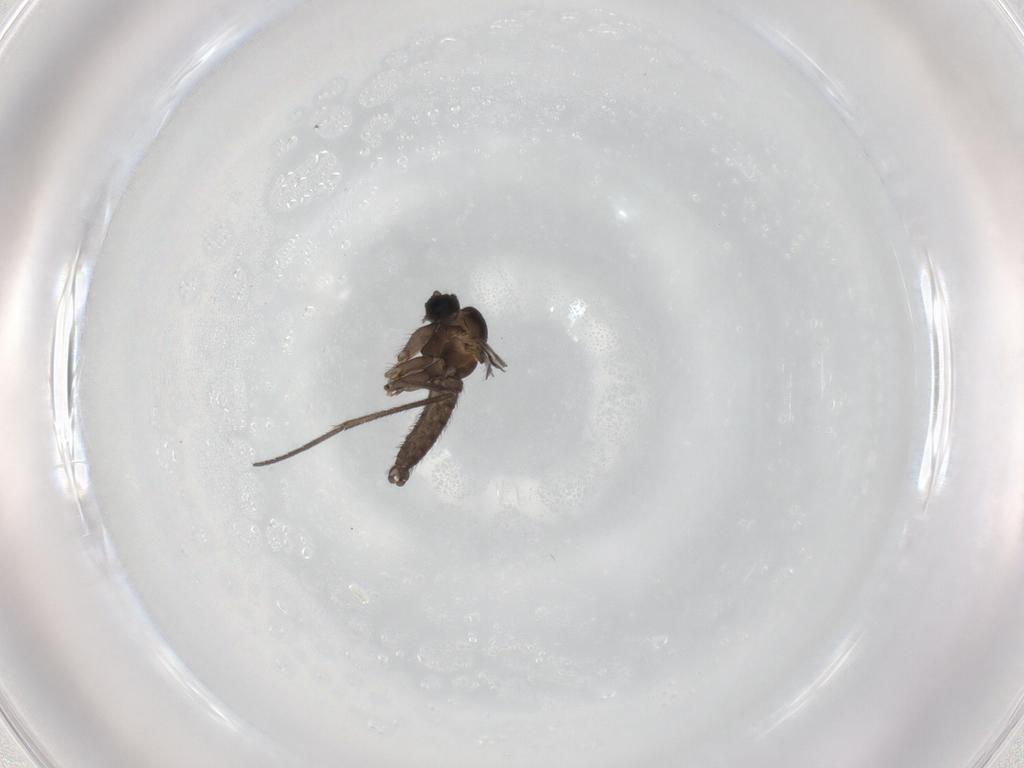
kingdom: Animalia
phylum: Arthropoda
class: Insecta
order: Diptera
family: Sciaridae
